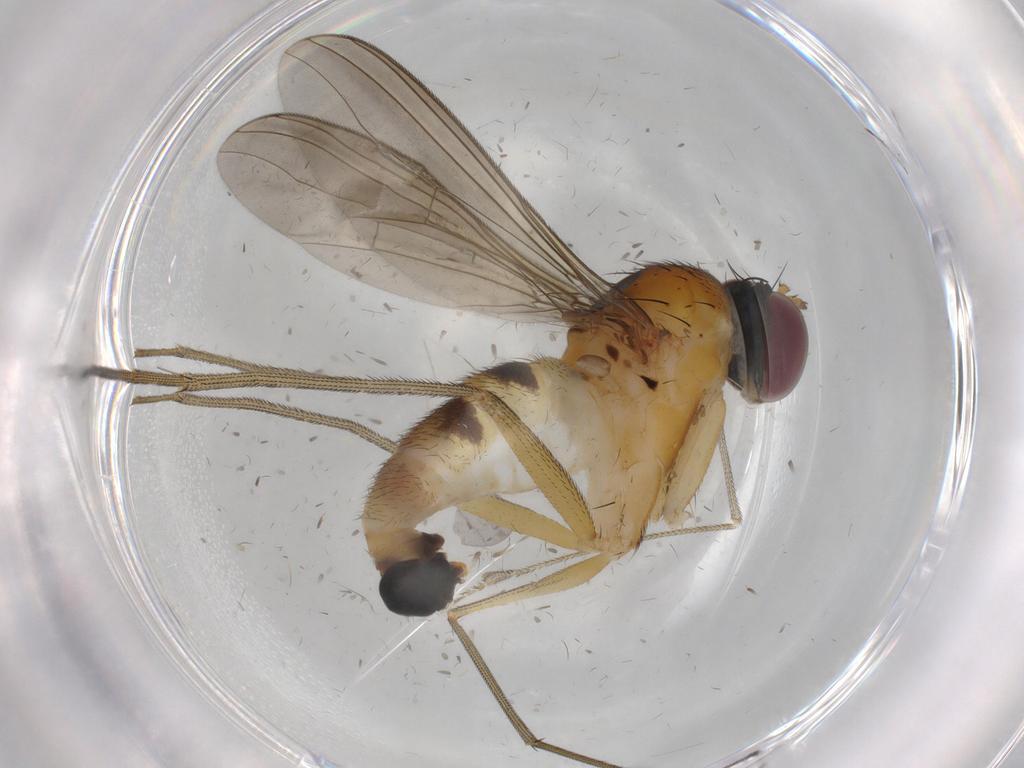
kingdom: Animalia
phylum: Arthropoda
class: Insecta
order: Diptera
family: Dolichopodidae
